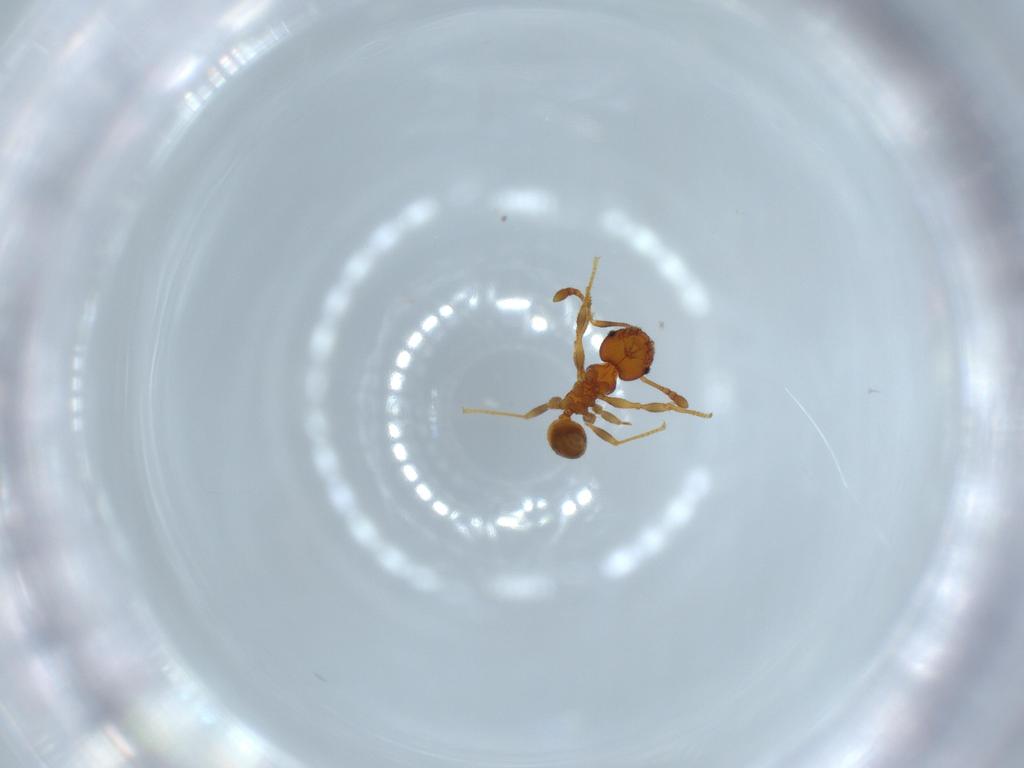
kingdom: Animalia
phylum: Arthropoda
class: Insecta
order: Hymenoptera
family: Formicidae
